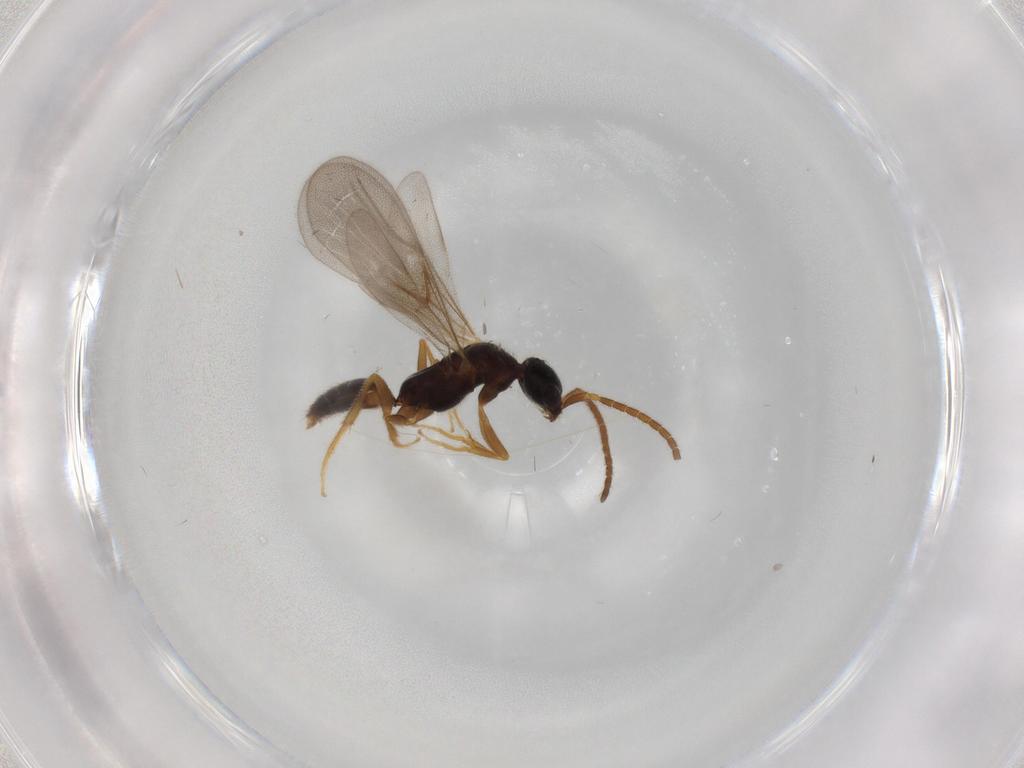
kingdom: Animalia
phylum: Arthropoda
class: Insecta
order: Hymenoptera
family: Bethylidae
